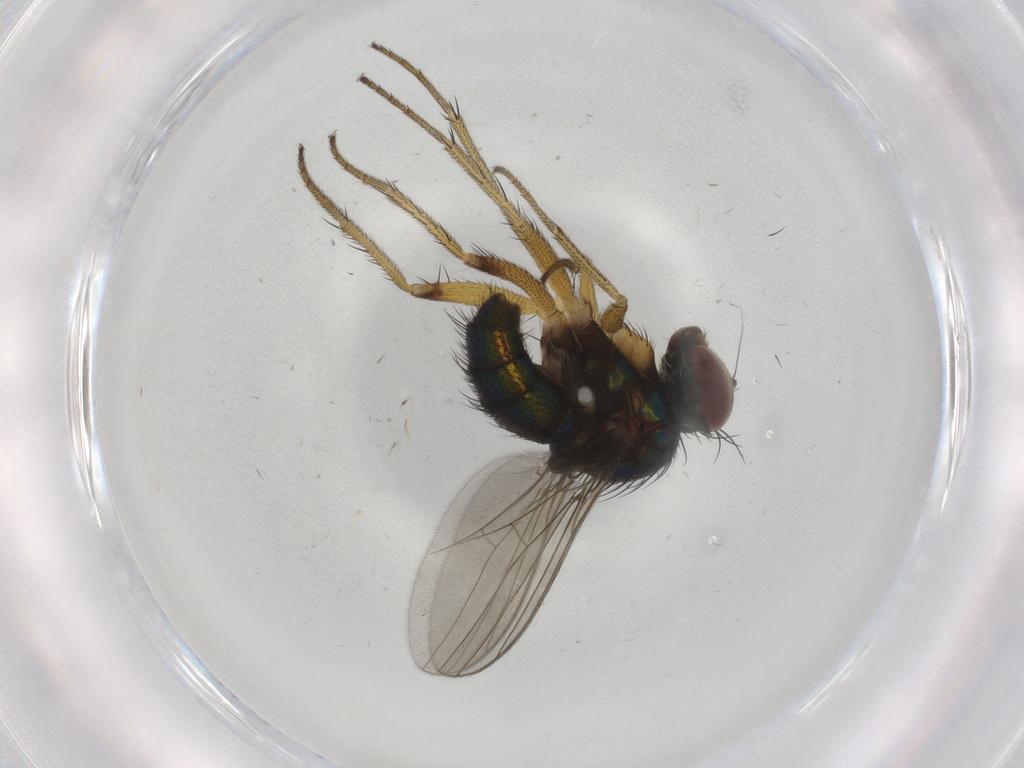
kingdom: Animalia
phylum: Arthropoda
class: Insecta
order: Diptera
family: Dolichopodidae
